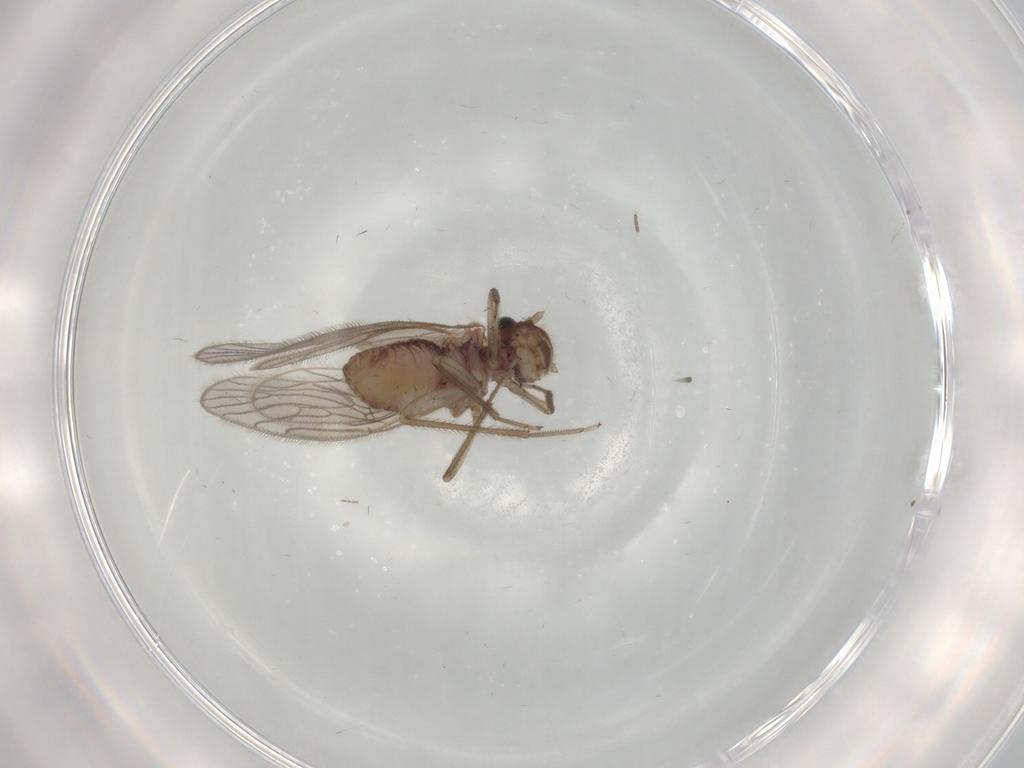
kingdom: Animalia
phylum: Arthropoda
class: Insecta
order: Psocodea
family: Cladiopsocidae
